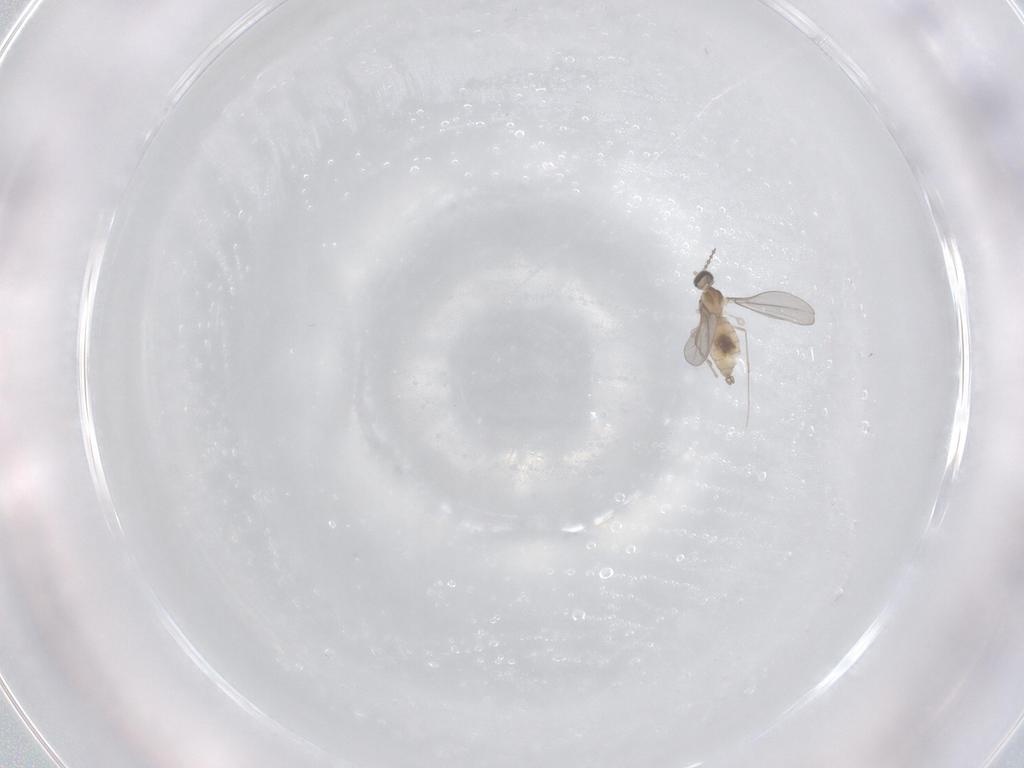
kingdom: Animalia
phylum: Arthropoda
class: Insecta
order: Diptera
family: Cecidomyiidae
